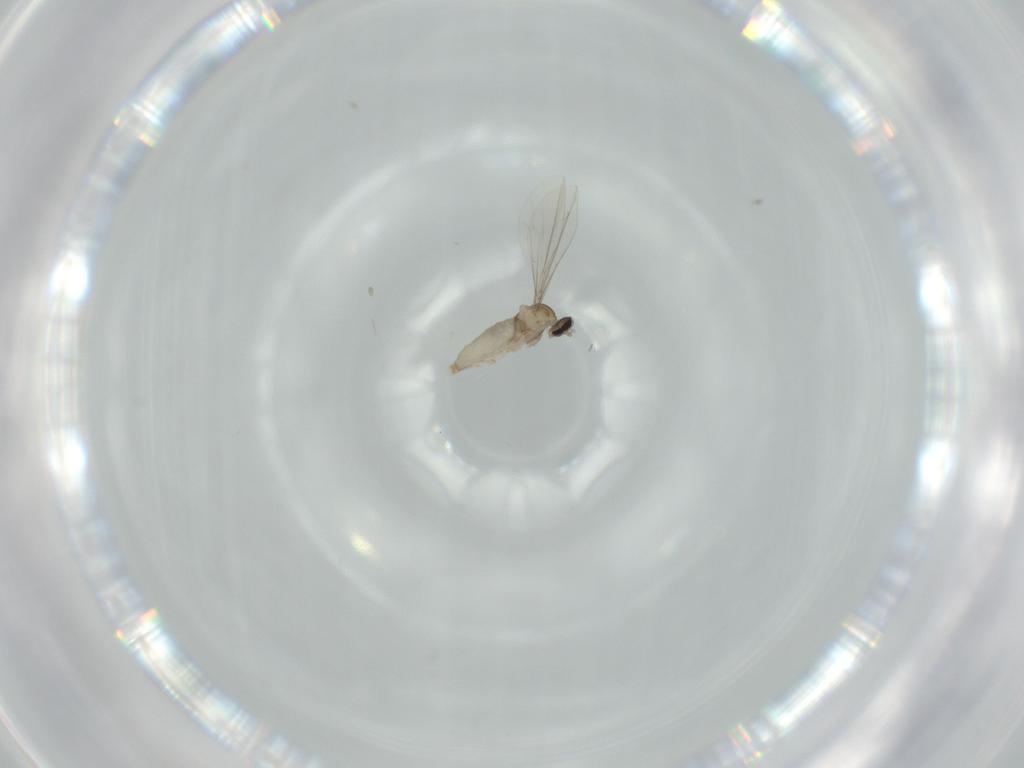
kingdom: Animalia
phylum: Arthropoda
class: Insecta
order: Diptera
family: Cecidomyiidae
